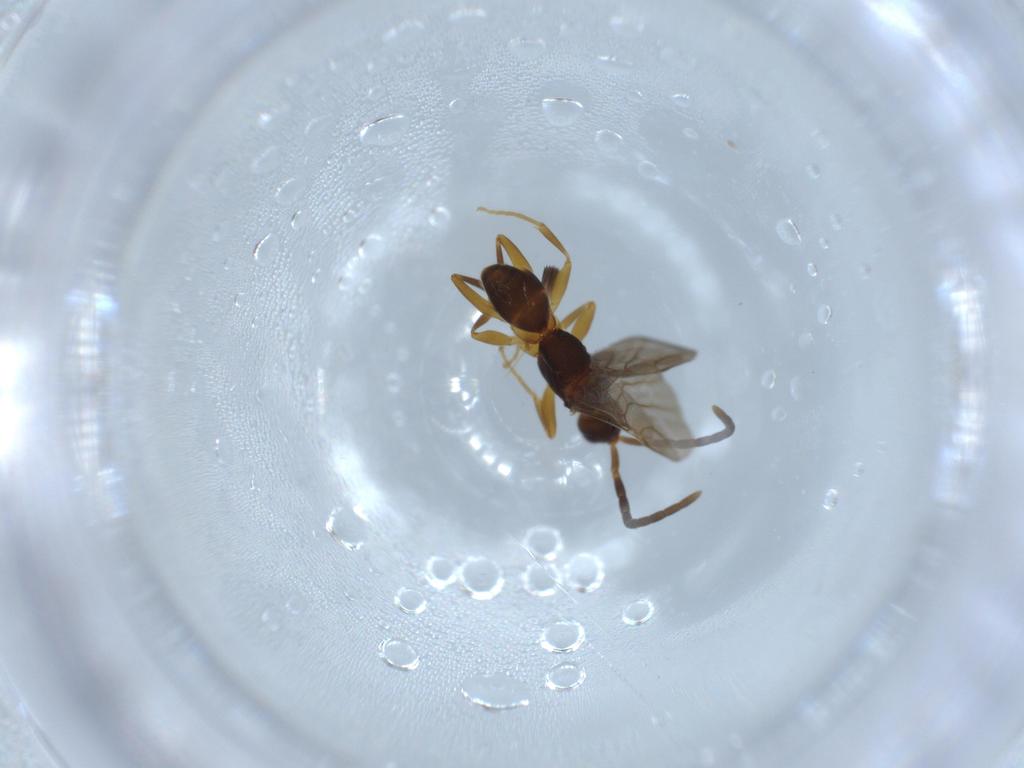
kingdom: Animalia
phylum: Arthropoda
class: Insecta
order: Hymenoptera
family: Embolemidae
